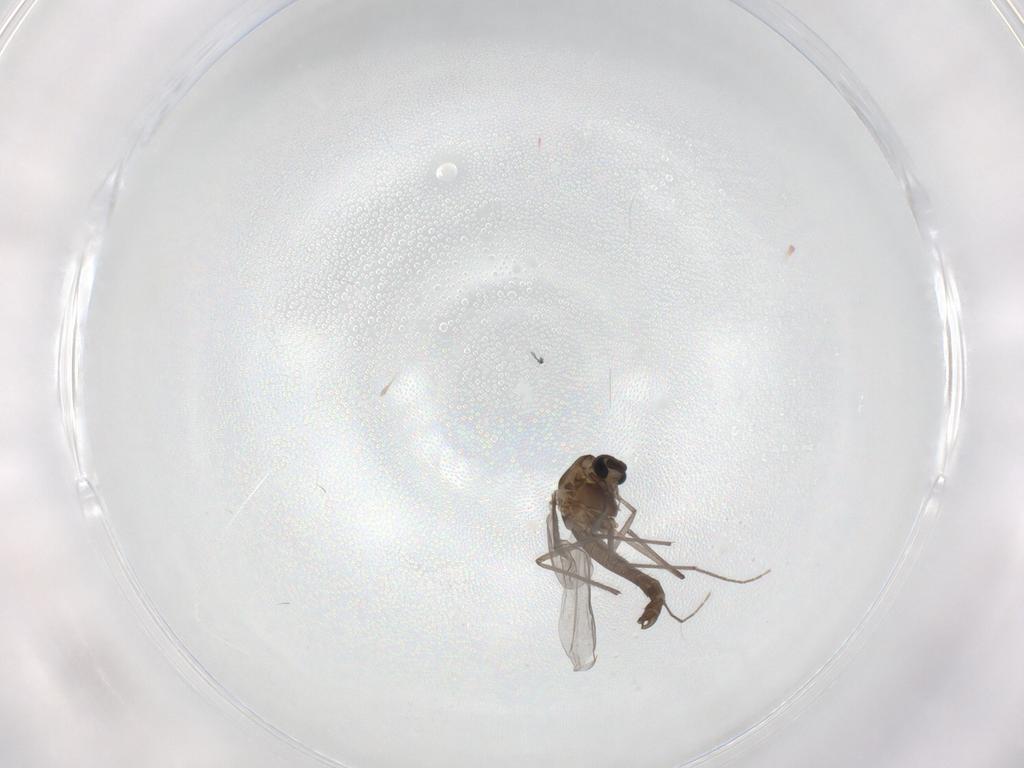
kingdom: Animalia
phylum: Arthropoda
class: Insecta
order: Diptera
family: Chironomidae
